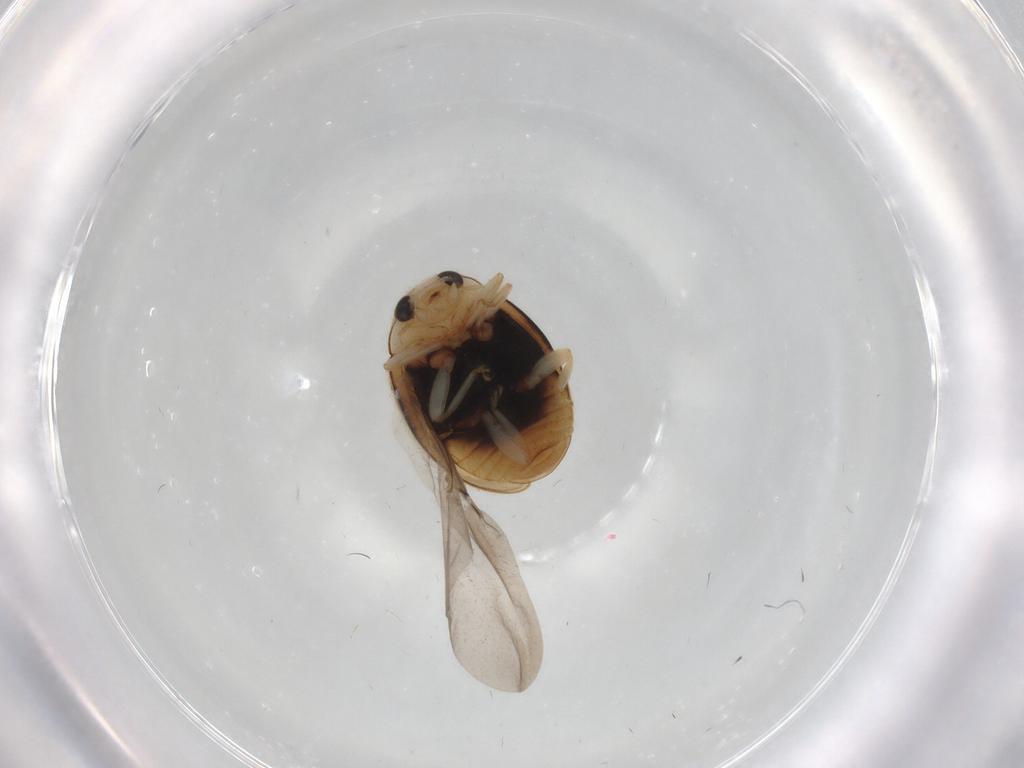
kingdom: Animalia
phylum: Arthropoda
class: Insecta
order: Coleoptera
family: Coccinellidae
